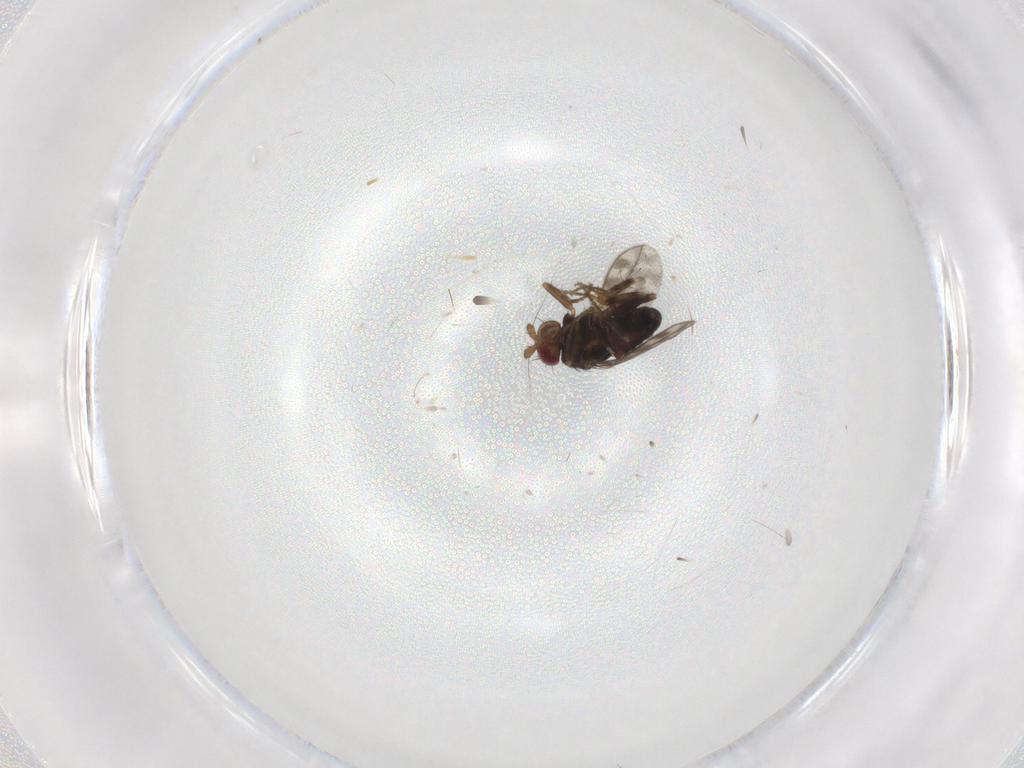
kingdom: Animalia
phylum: Arthropoda
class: Insecta
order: Diptera
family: Sphaeroceridae
